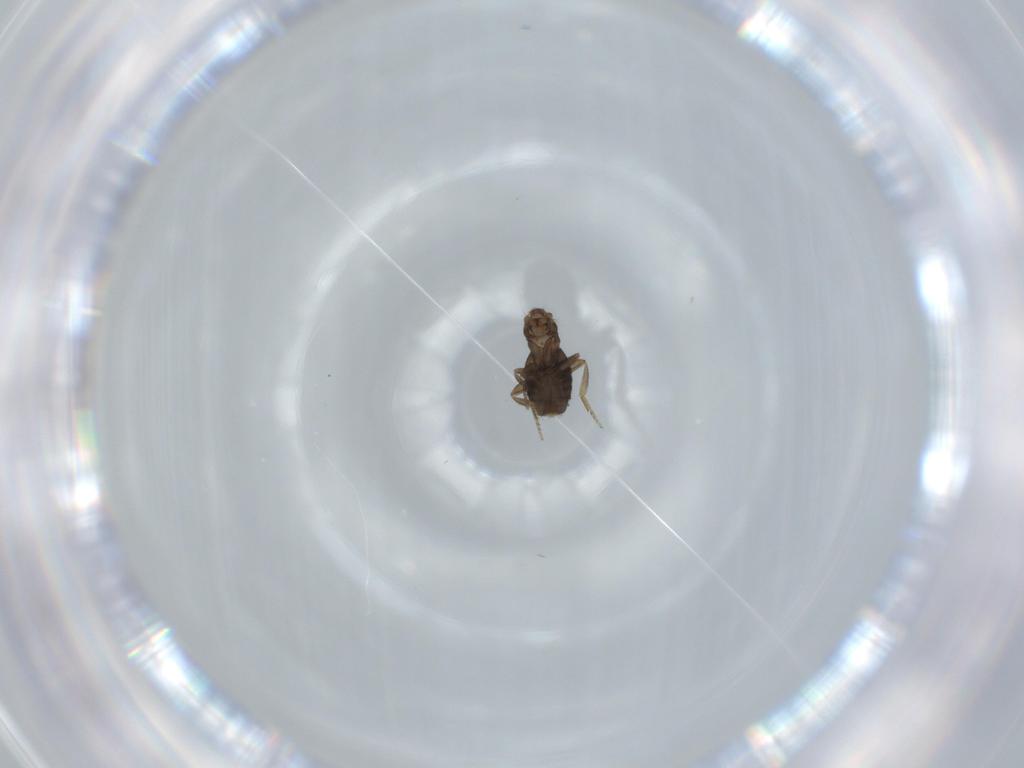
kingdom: Animalia
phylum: Arthropoda
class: Insecta
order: Diptera
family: Phoridae
